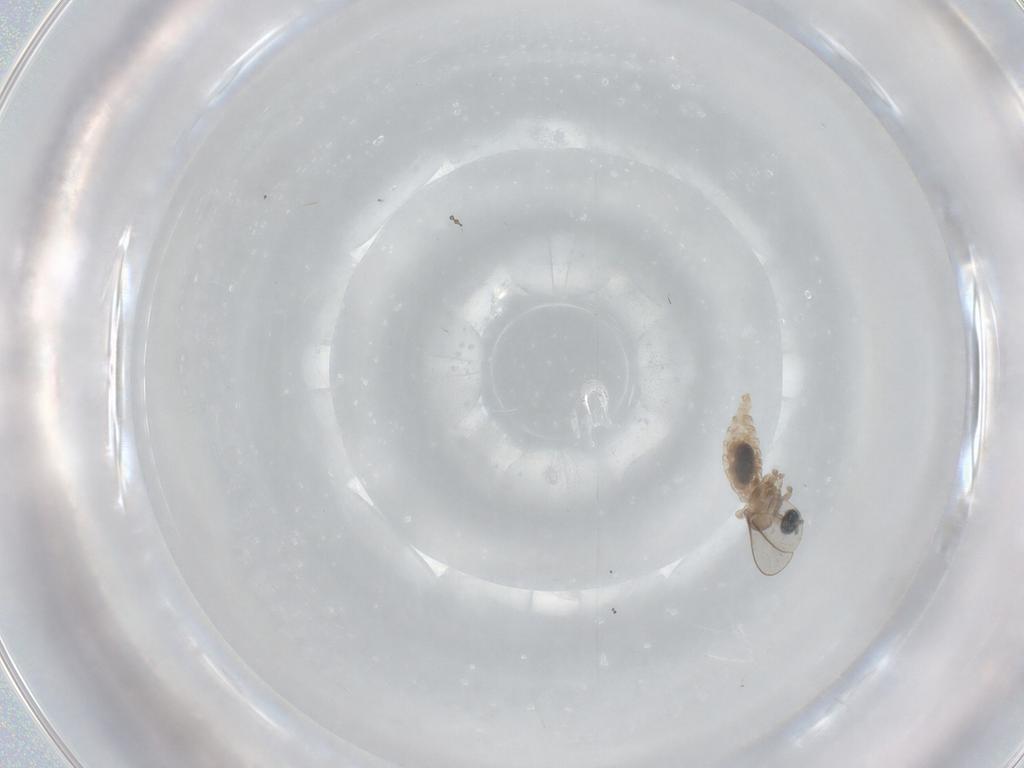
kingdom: Animalia
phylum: Arthropoda
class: Insecta
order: Diptera
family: Cecidomyiidae
